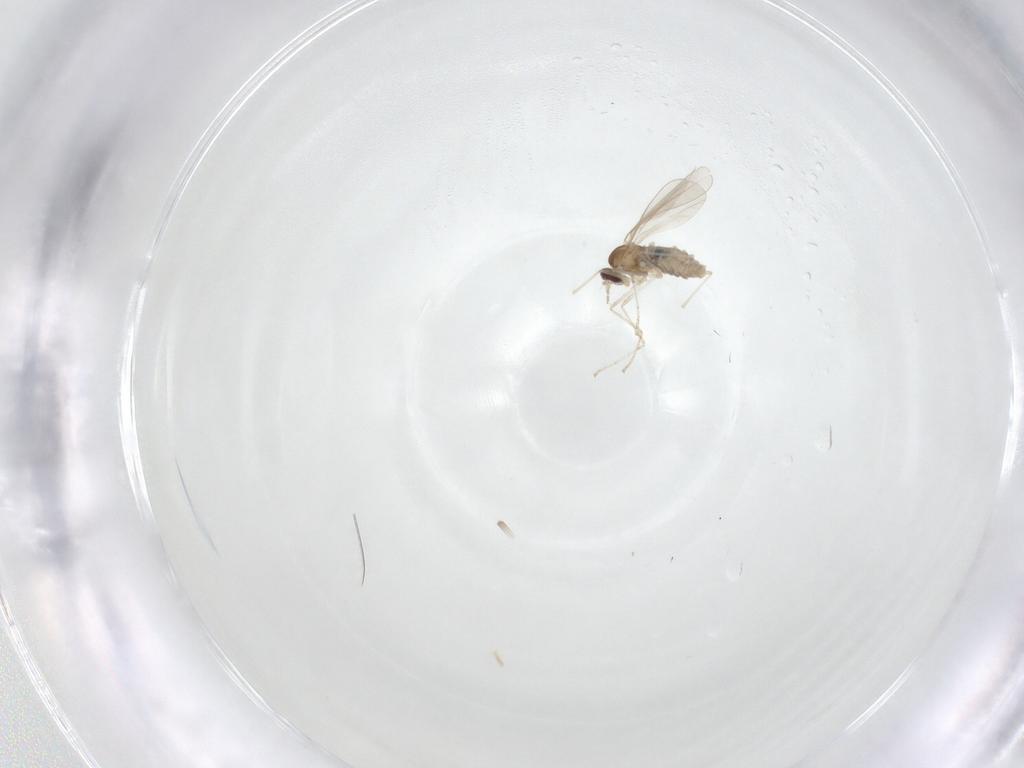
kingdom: Animalia
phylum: Arthropoda
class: Insecta
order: Diptera
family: Cecidomyiidae
